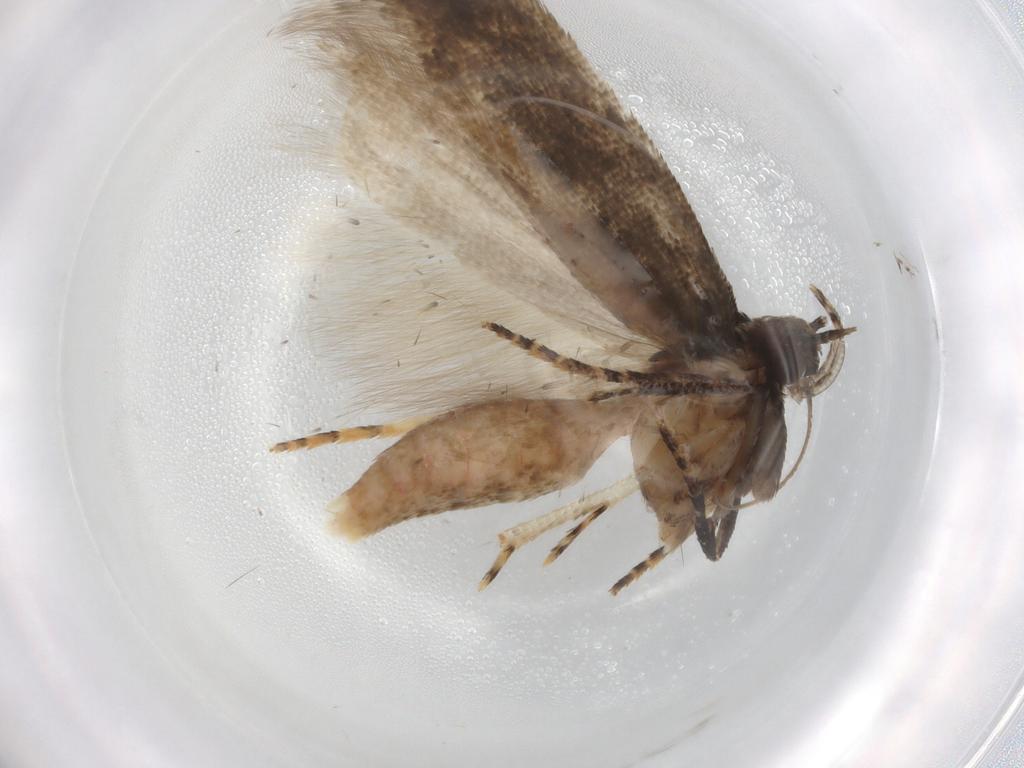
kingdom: Animalia
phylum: Arthropoda
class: Insecta
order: Lepidoptera
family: Gelechiidae
